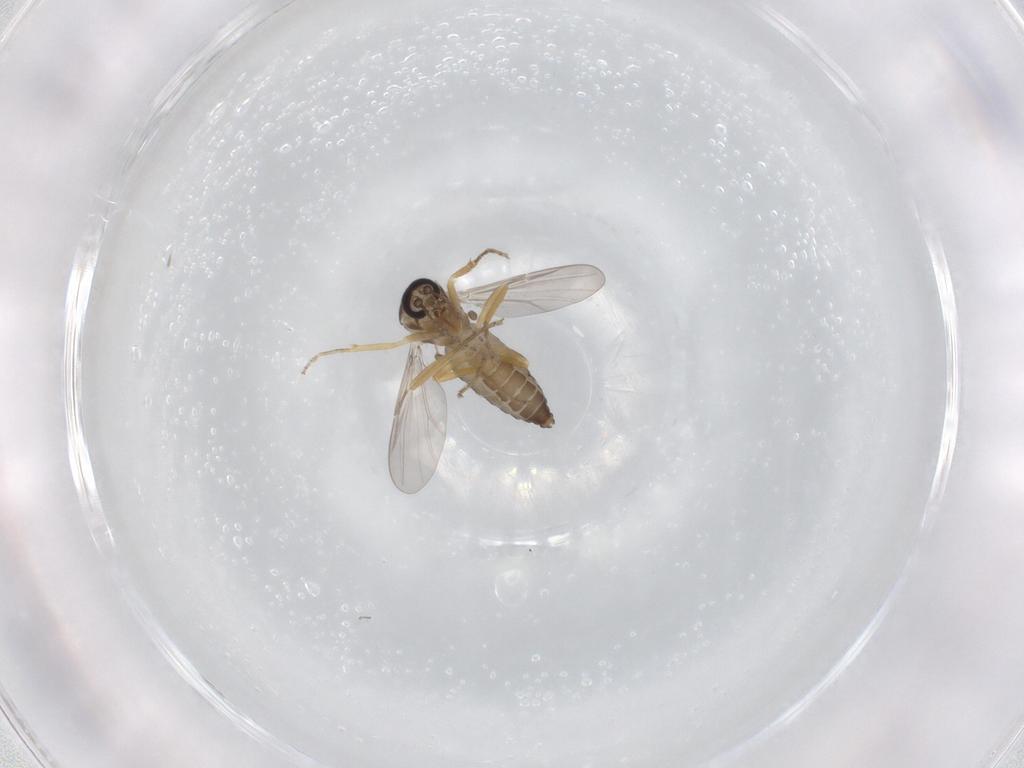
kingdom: Animalia
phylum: Arthropoda
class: Insecta
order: Diptera
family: Ceratopogonidae
